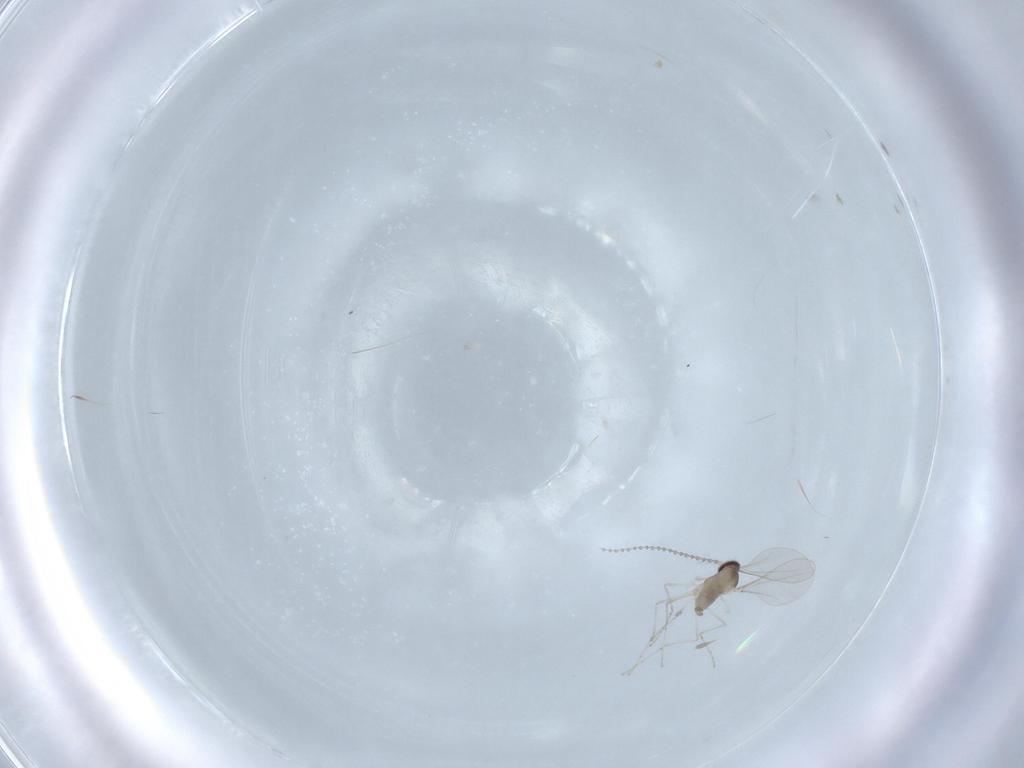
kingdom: Animalia
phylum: Arthropoda
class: Insecta
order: Diptera
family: Cecidomyiidae
